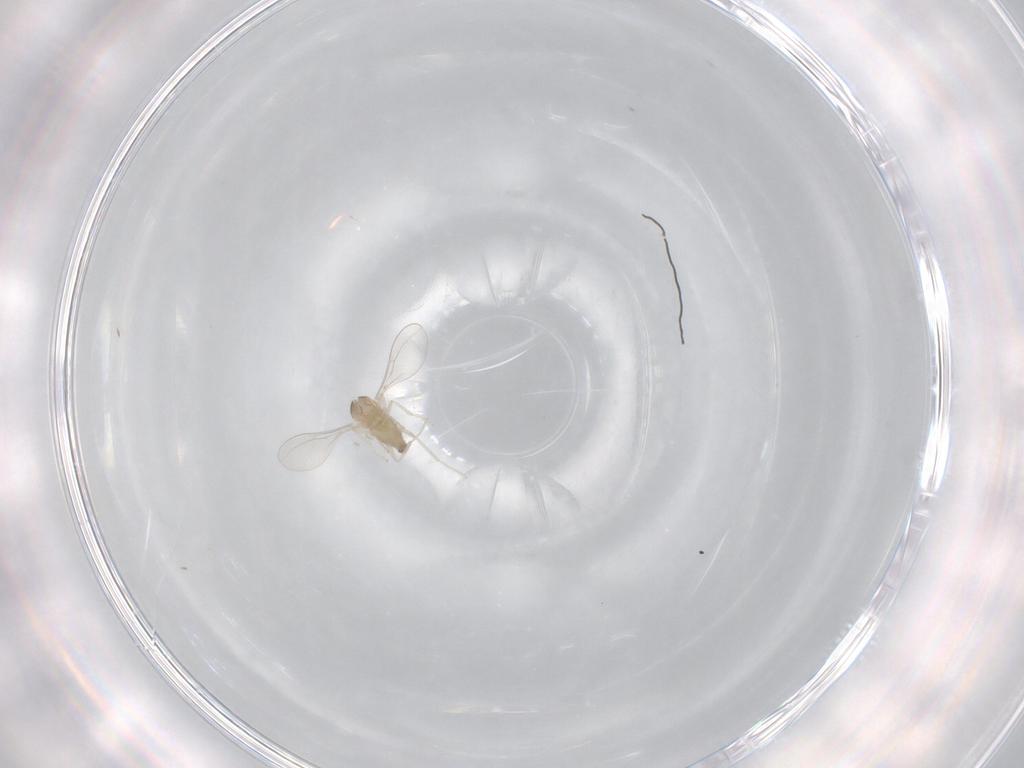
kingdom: Animalia
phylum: Arthropoda
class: Insecta
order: Diptera
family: Cecidomyiidae
